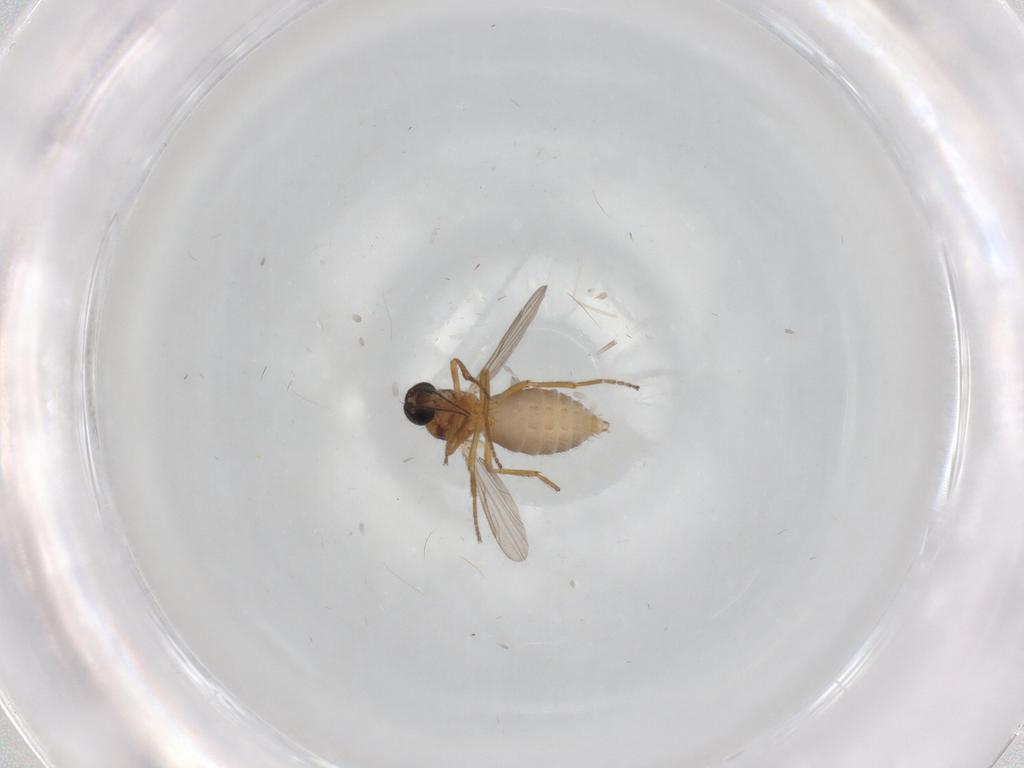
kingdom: Animalia
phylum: Arthropoda
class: Insecta
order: Diptera
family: Ceratopogonidae
